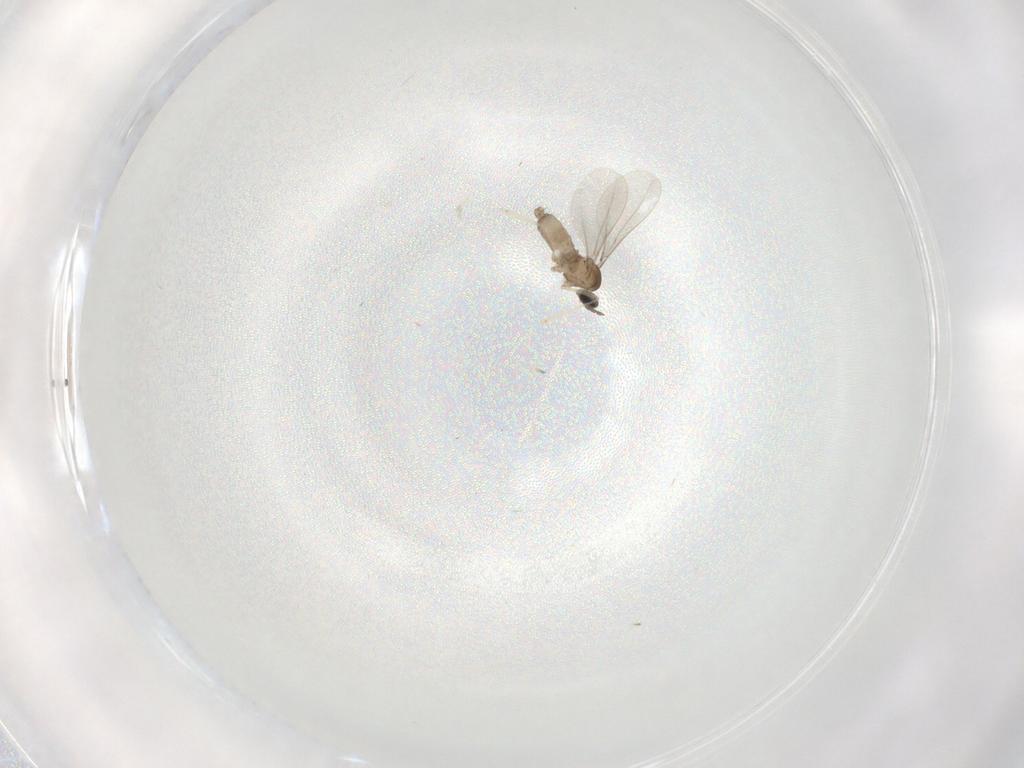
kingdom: Animalia
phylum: Arthropoda
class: Insecta
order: Diptera
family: Psychodidae
